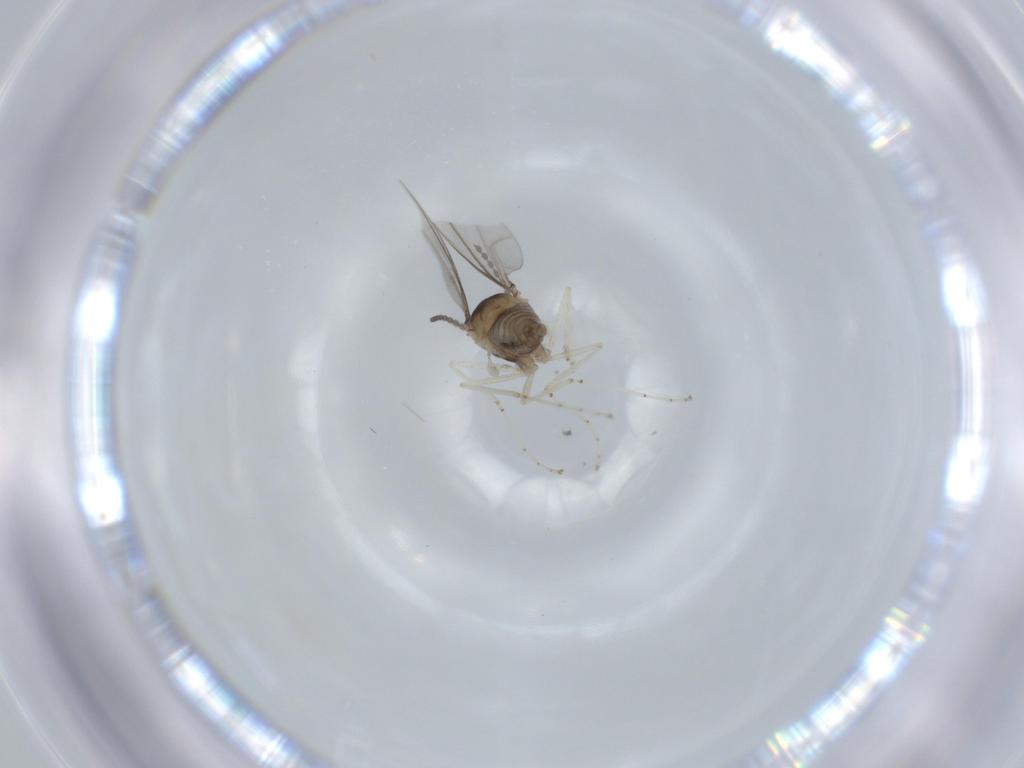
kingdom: Animalia
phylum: Arthropoda
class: Insecta
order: Diptera
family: Cecidomyiidae
